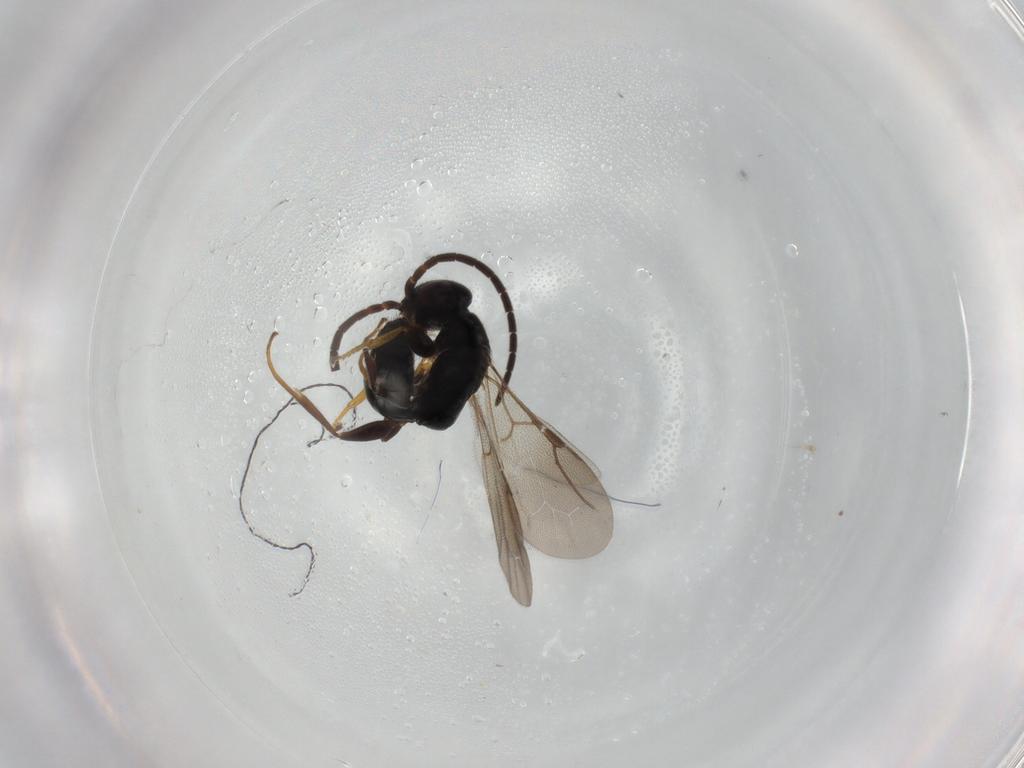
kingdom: Animalia
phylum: Arthropoda
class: Insecta
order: Hymenoptera
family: Bethylidae
